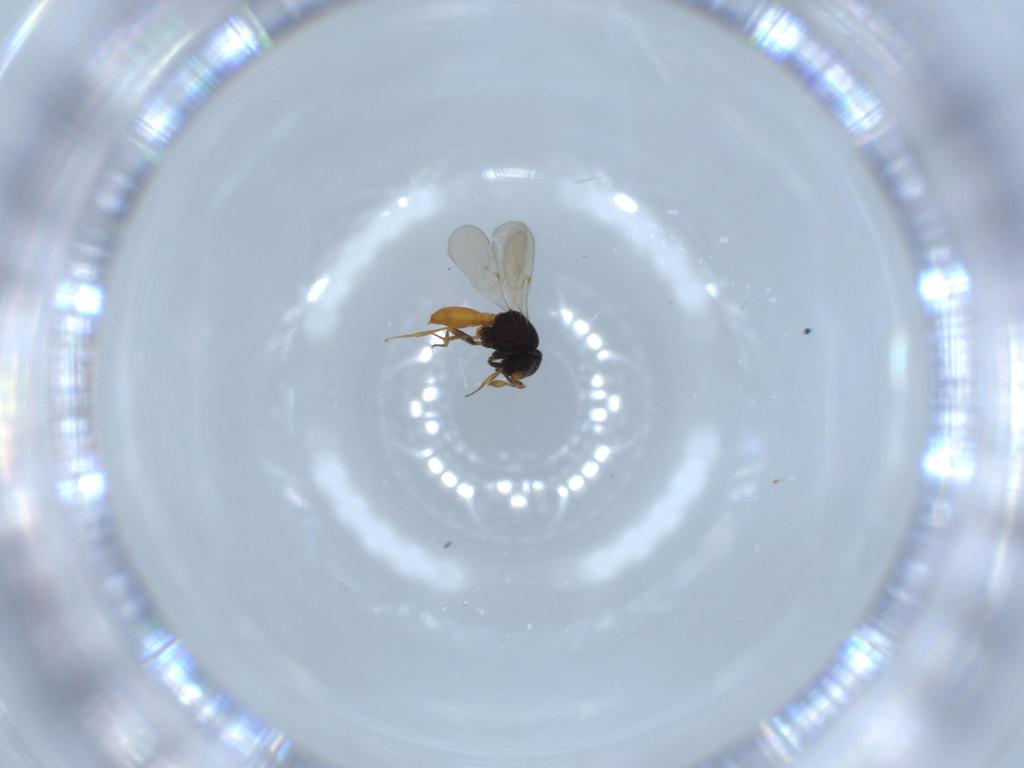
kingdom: Animalia
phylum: Arthropoda
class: Insecta
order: Hymenoptera
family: Scelionidae
